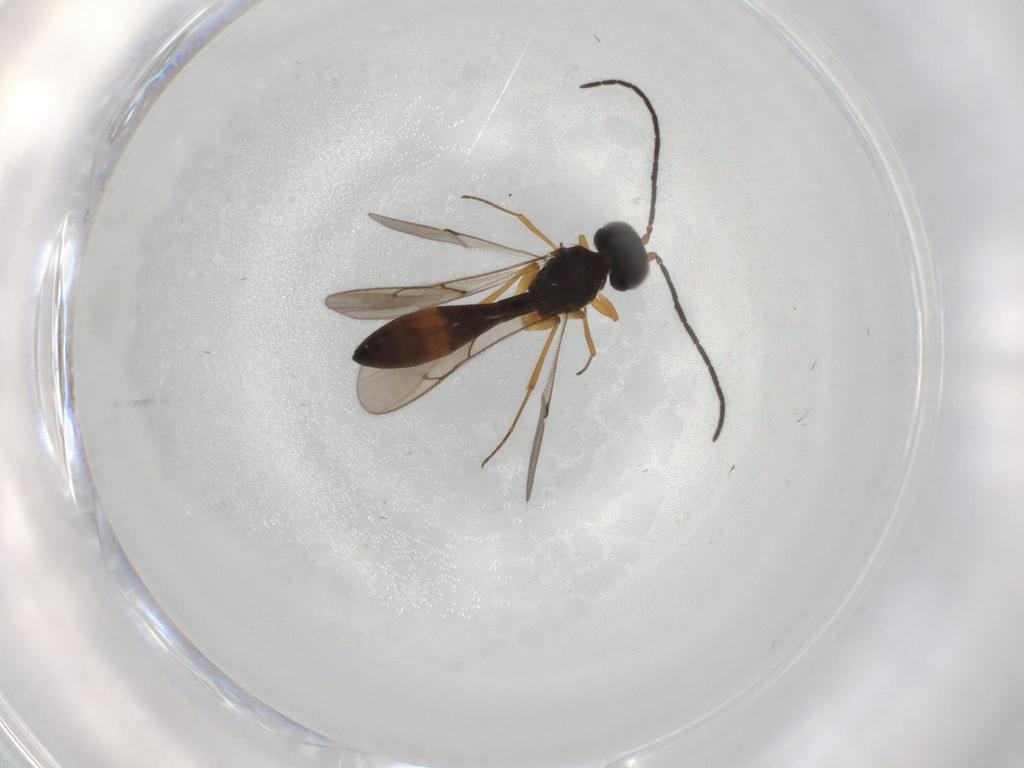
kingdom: Animalia
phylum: Arthropoda
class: Insecta
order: Hymenoptera
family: Scelionidae
